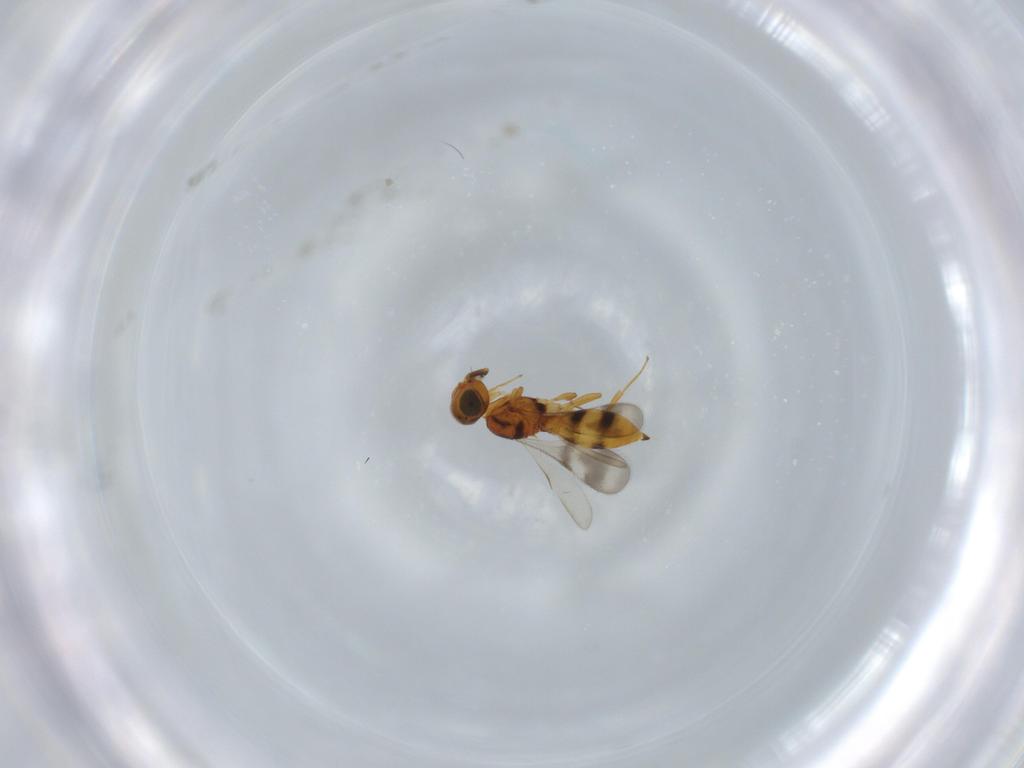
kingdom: Animalia
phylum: Arthropoda
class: Insecta
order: Hymenoptera
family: Scelionidae
